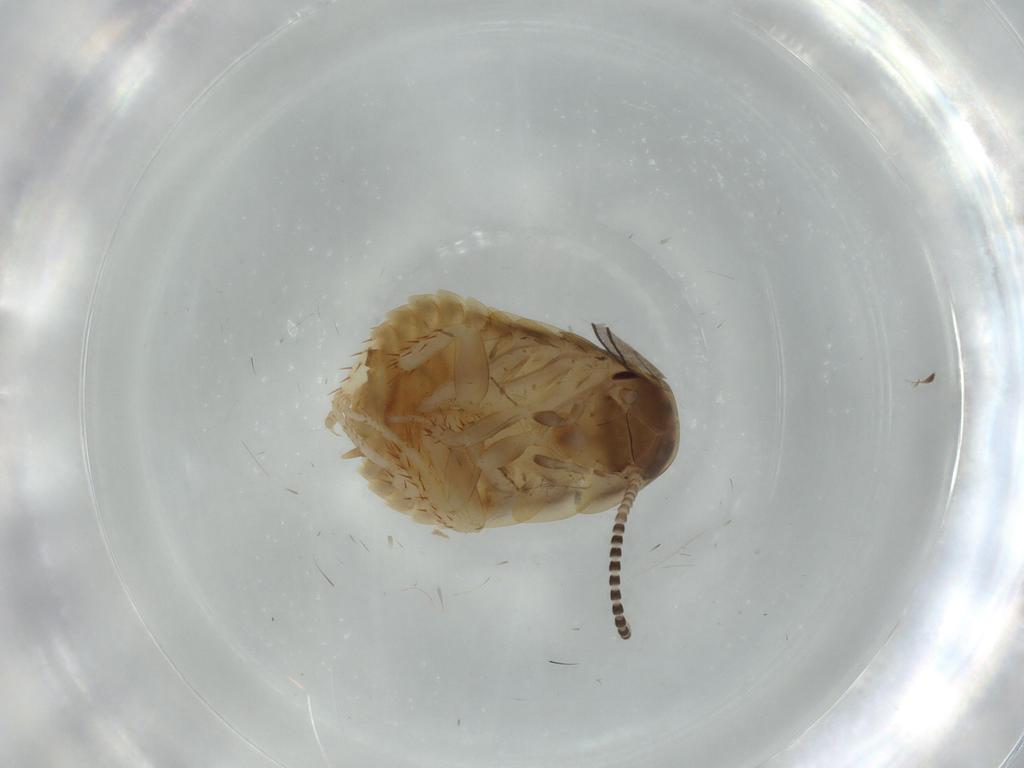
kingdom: Animalia
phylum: Arthropoda
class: Insecta
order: Blattodea
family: Blaberidae
